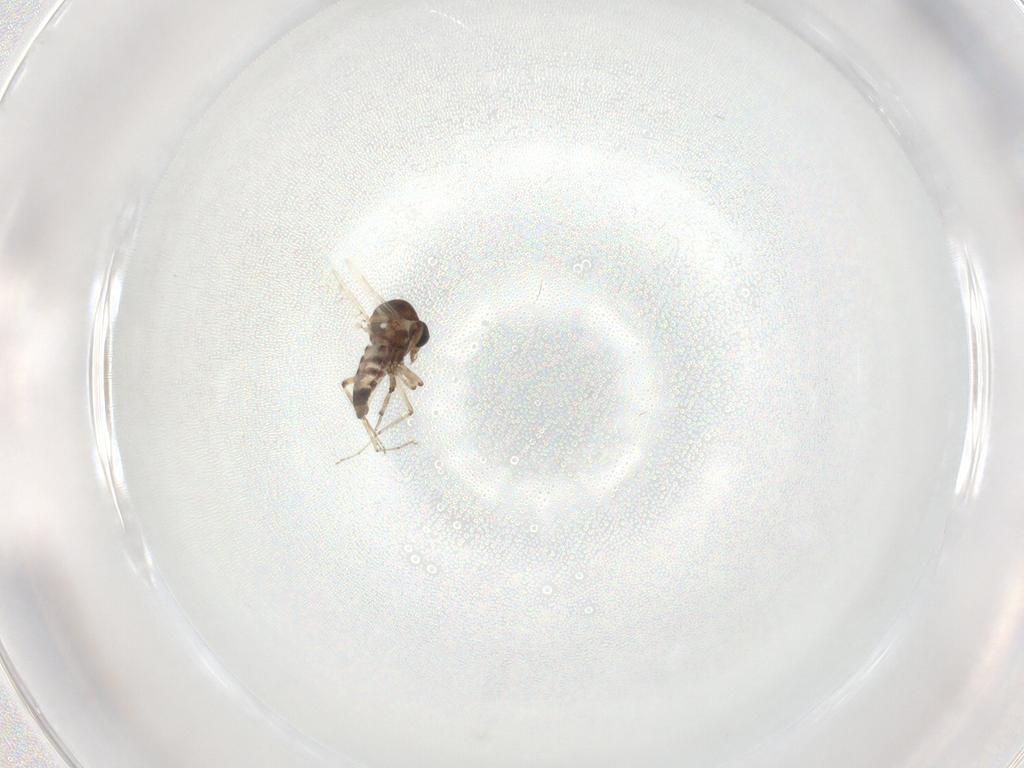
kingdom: Animalia
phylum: Arthropoda
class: Insecta
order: Diptera
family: Ceratopogonidae
